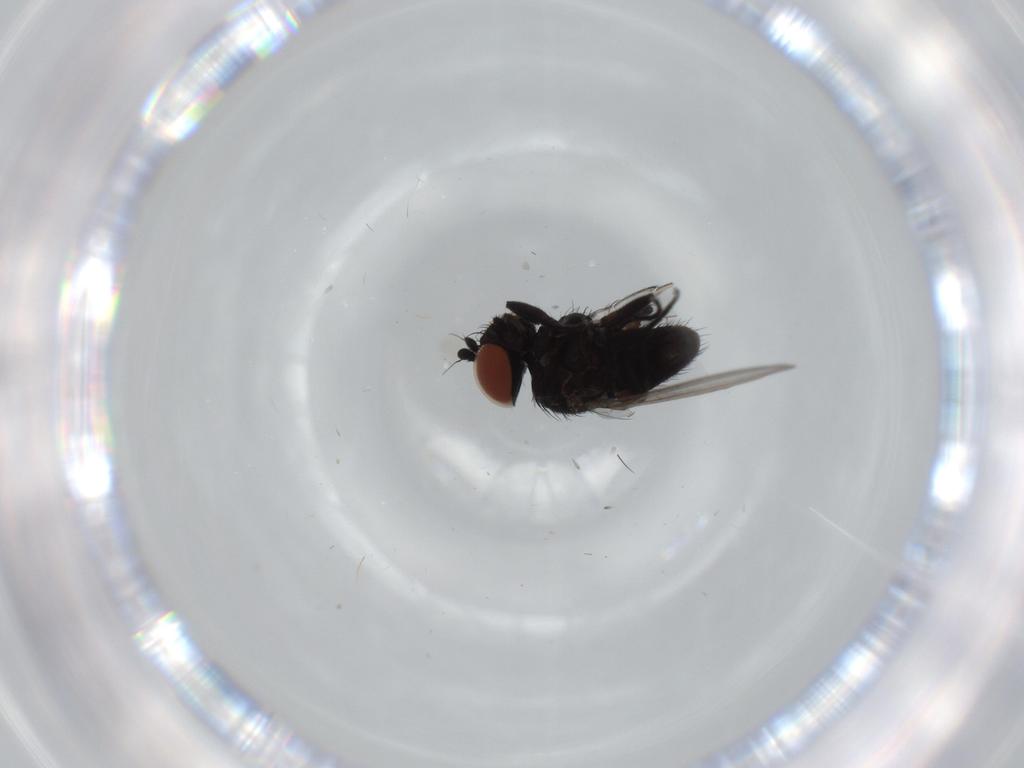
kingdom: Animalia
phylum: Arthropoda
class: Insecta
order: Diptera
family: Milichiidae
